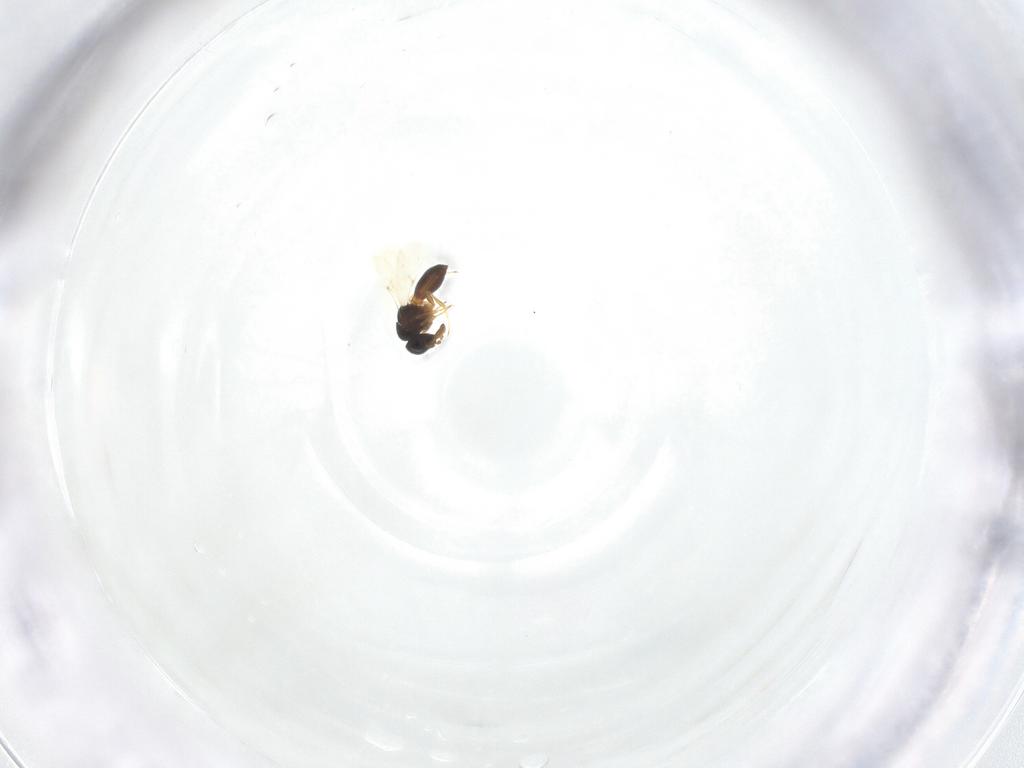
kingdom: Animalia
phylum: Arthropoda
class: Insecta
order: Hymenoptera
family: Scelionidae
